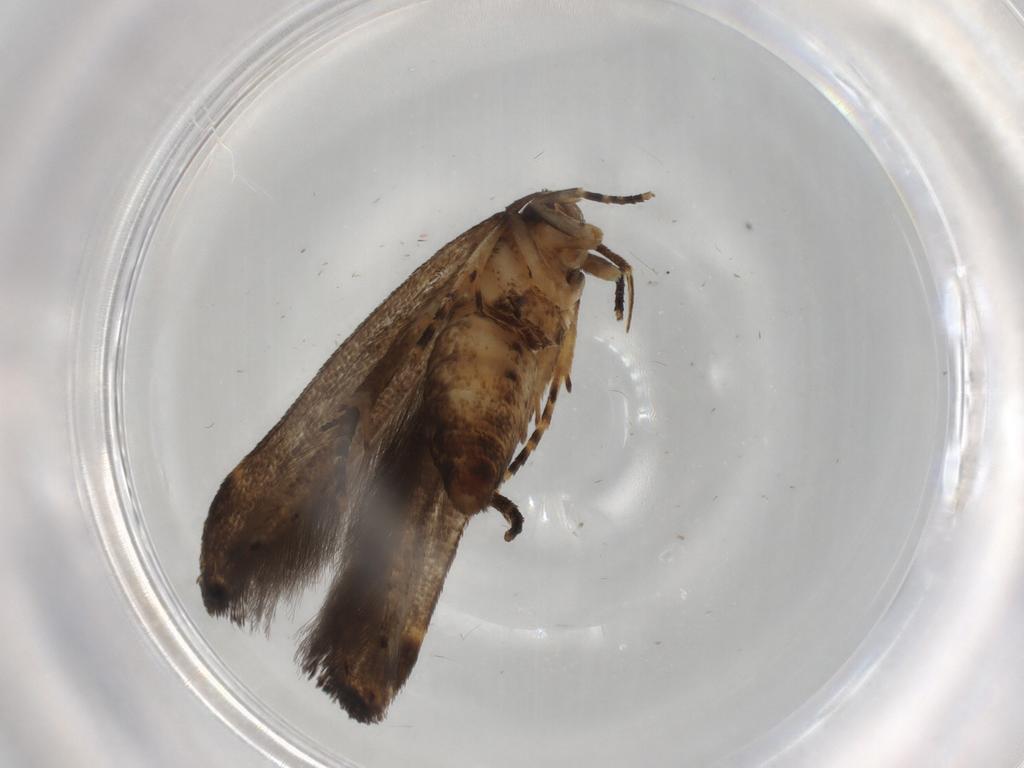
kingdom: Animalia
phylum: Arthropoda
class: Insecta
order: Lepidoptera
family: Cosmopterigidae
